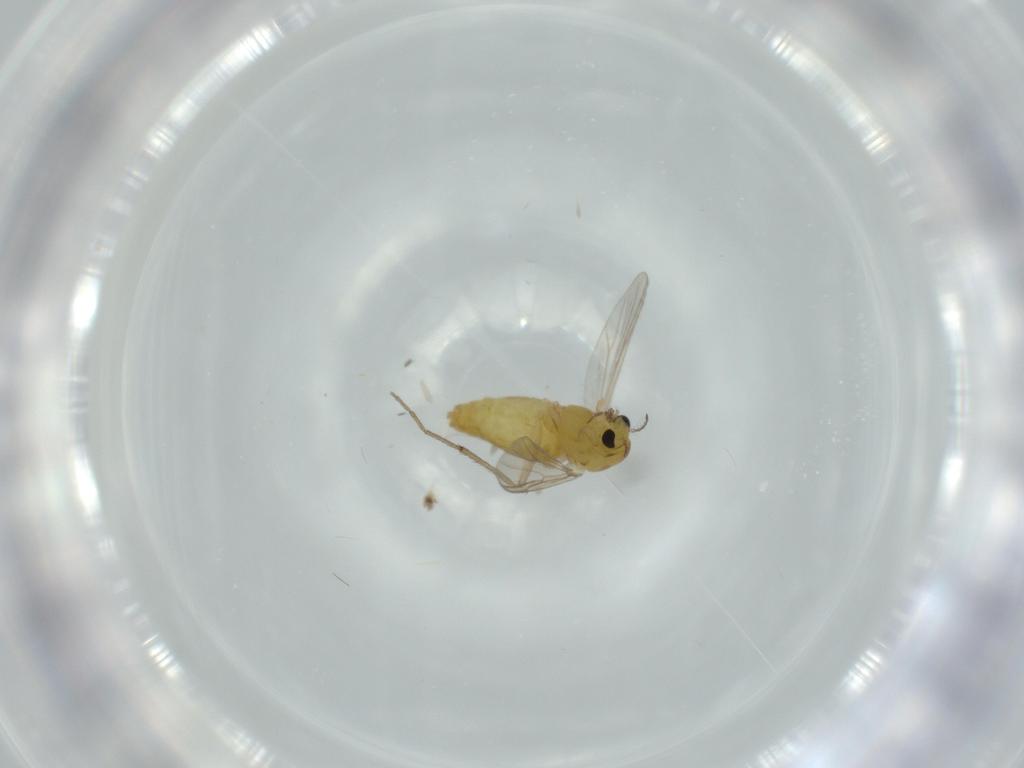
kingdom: Animalia
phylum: Arthropoda
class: Insecta
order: Diptera
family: Chironomidae
